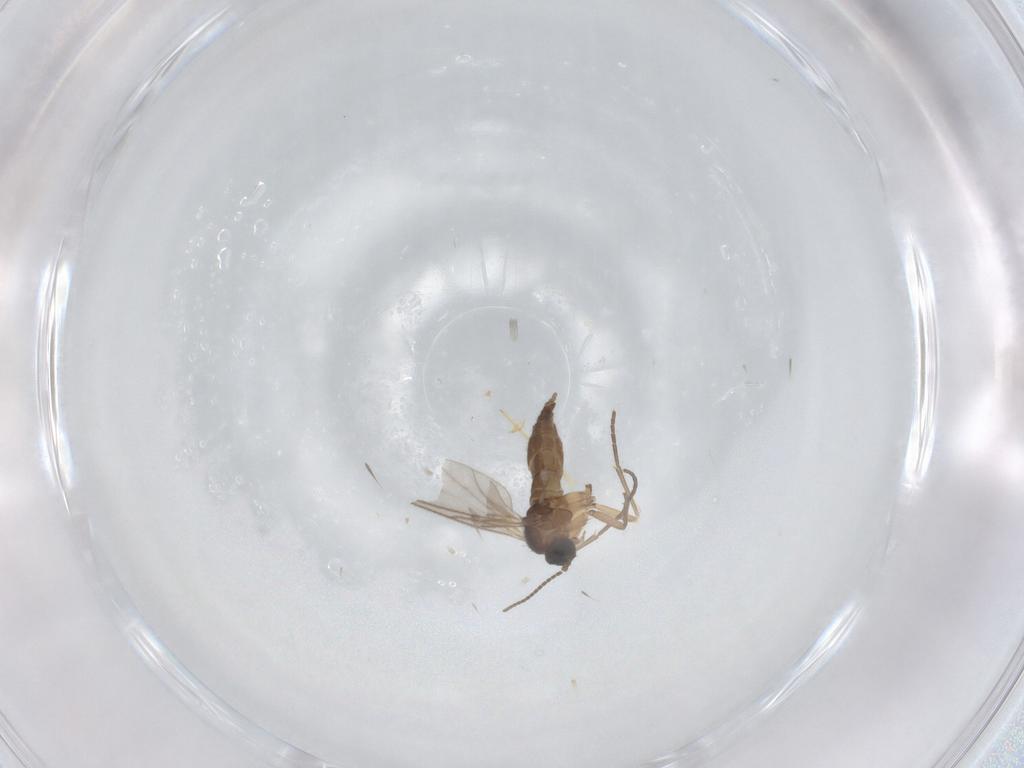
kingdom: Animalia
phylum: Arthropoda
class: Insecta
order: Diptera
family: Sciaridae
